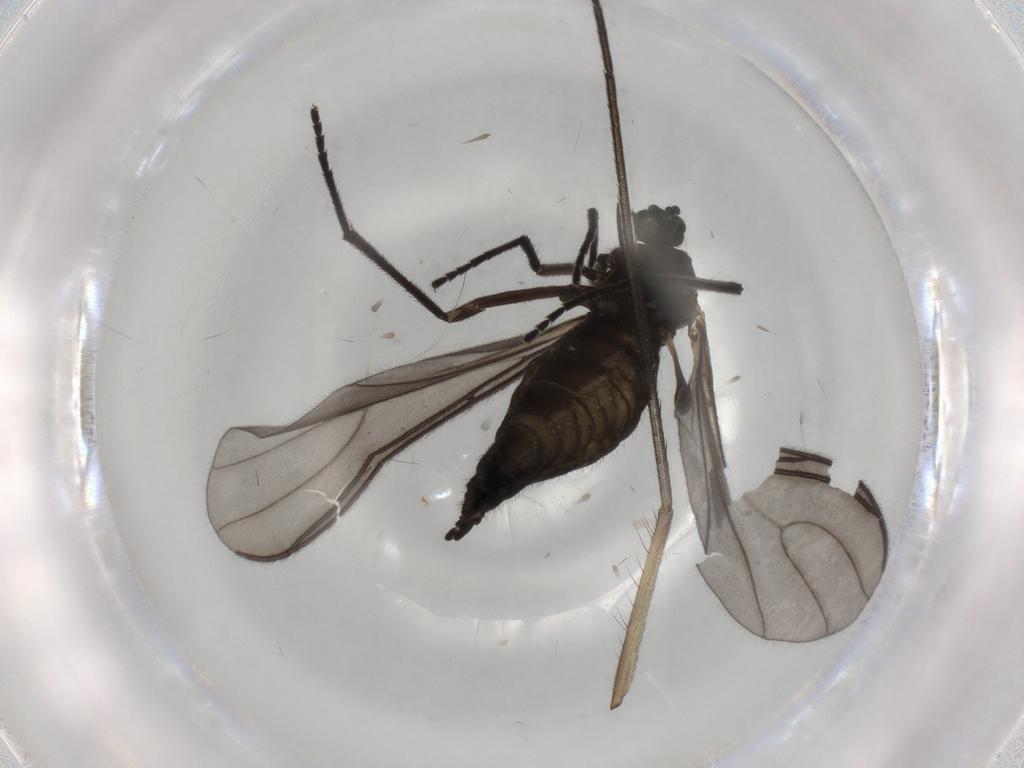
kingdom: Animalia
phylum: Arthropoda
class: Insecta
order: Diptera
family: Sciaridae
